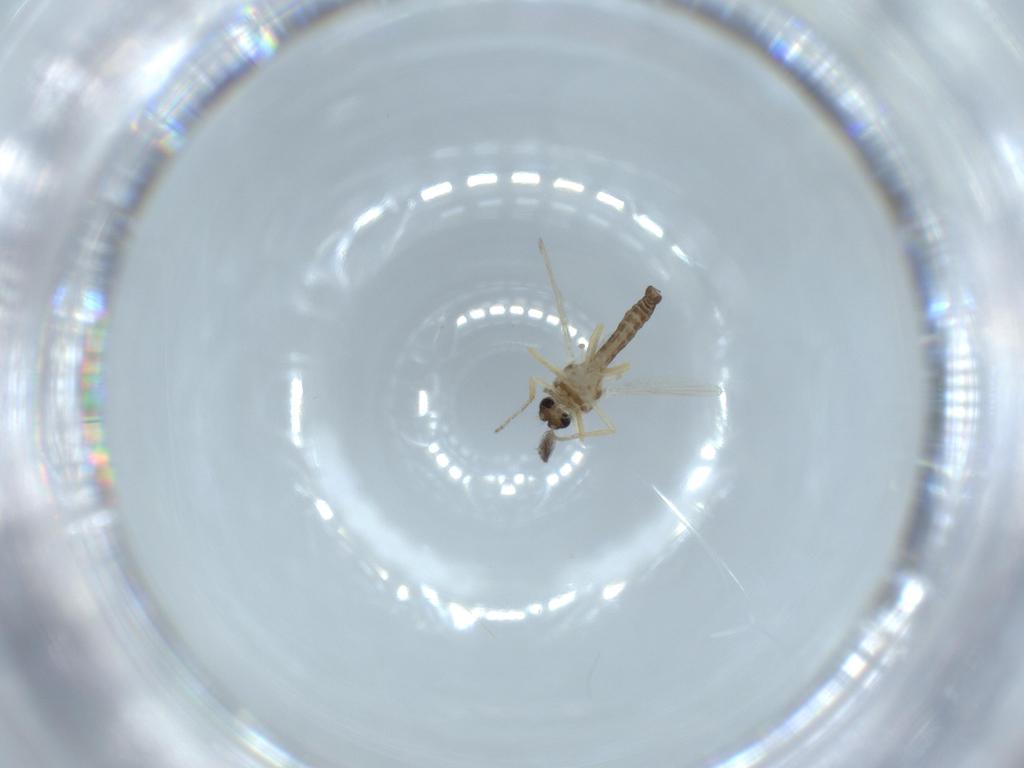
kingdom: Animalia
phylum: Arthropoda
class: Insecta
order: Diptera
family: Ceratopogonidae
